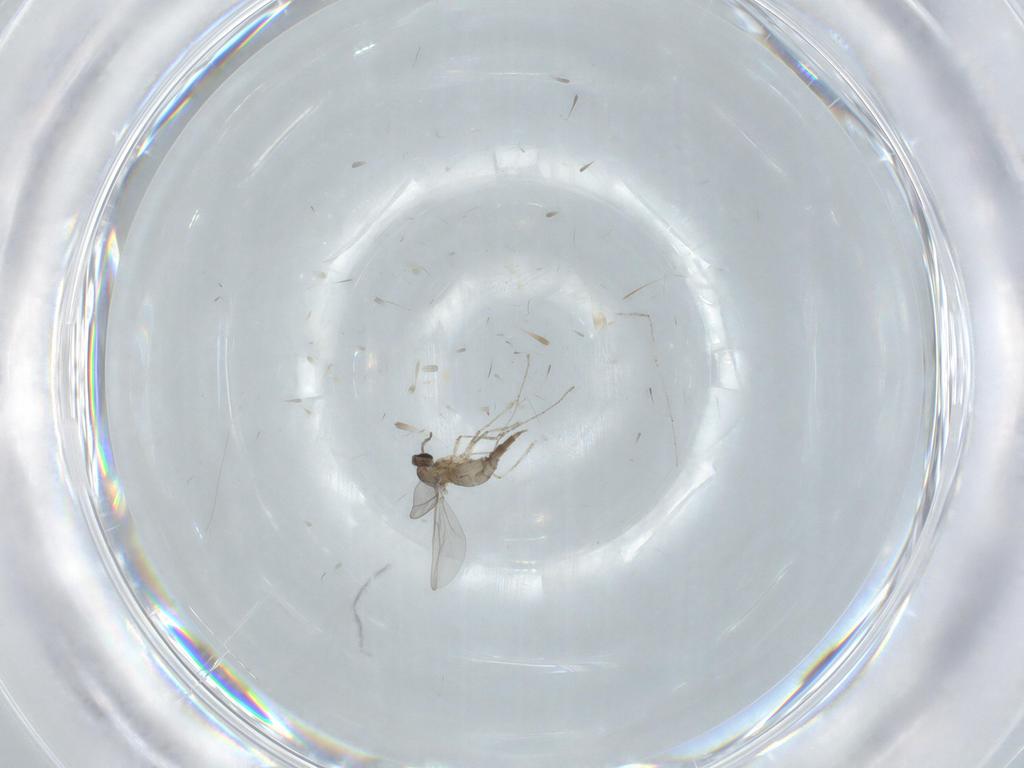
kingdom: Animalia
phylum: Arthropoda
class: Insecta
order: Diptera
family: Cecidomyiidae
